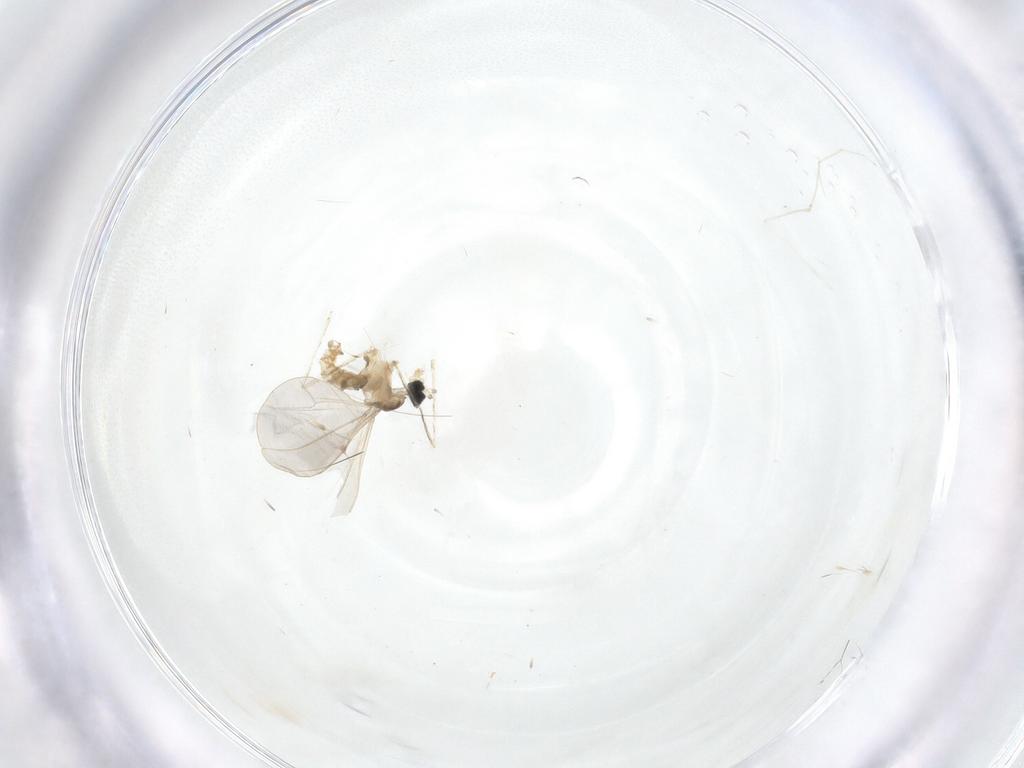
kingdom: Animalia
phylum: Arthropoda
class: Insecta
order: Diptera
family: Cecidomyiidae
